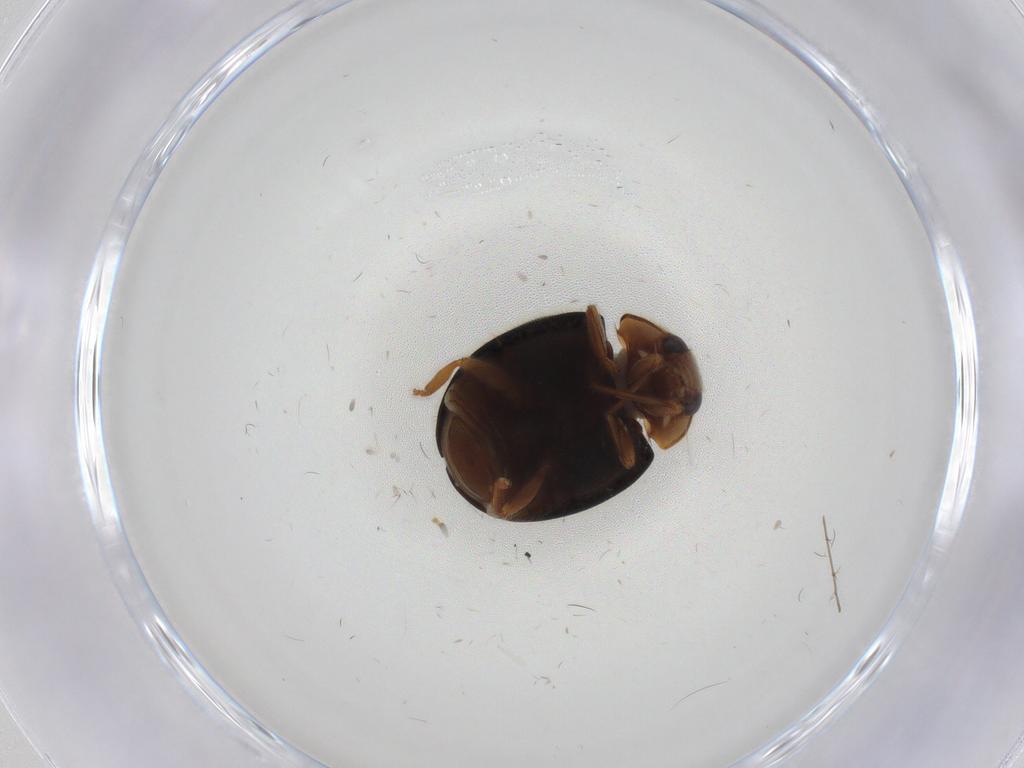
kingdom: Animalia
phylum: Arthropoda
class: Insecta
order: Coleoptera
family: Coccinellidae
